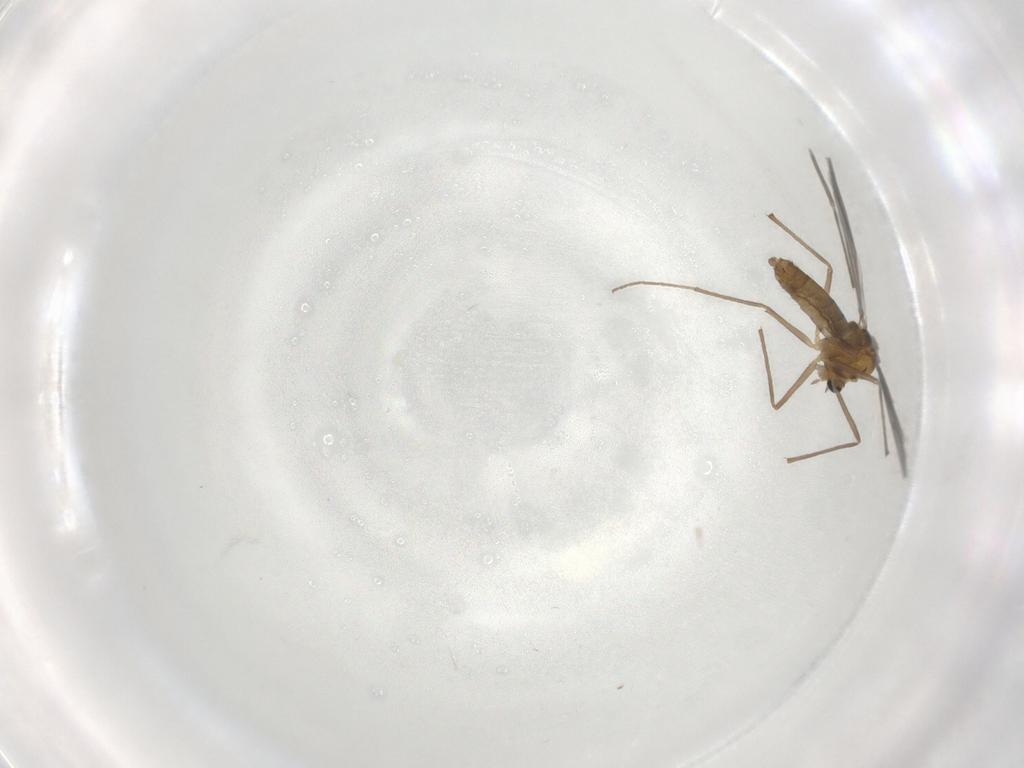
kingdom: Animalia
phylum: Arthropoda
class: Insecta
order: Diptera
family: Chironomidae
